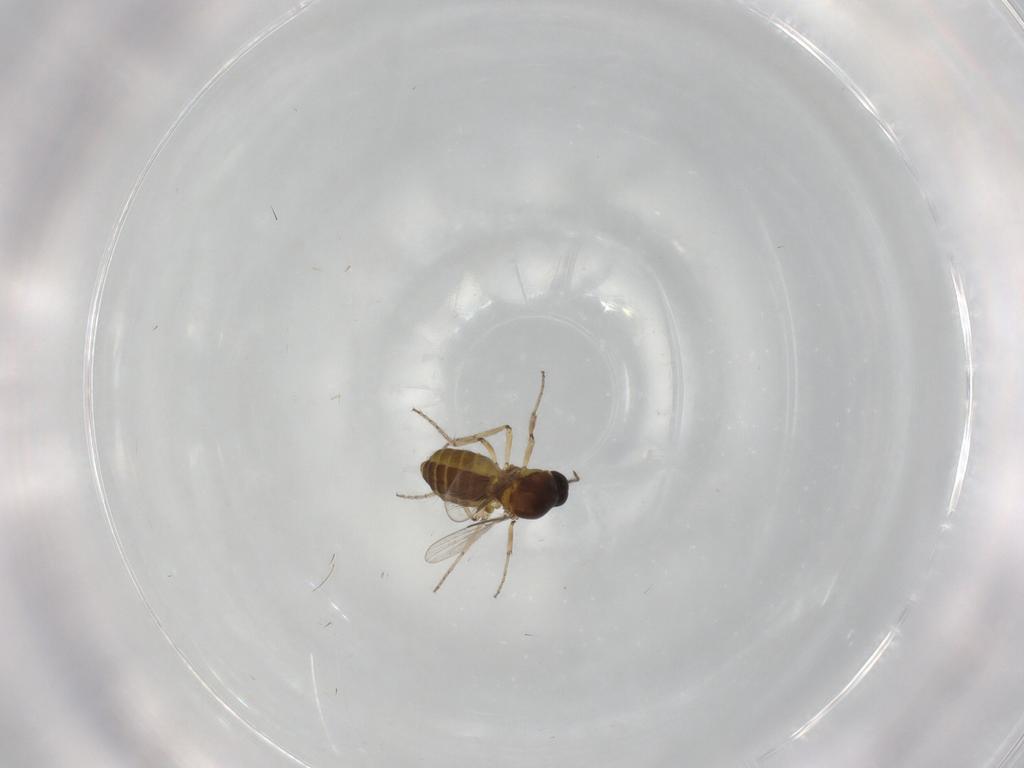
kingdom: Animalia
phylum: Arthropoda
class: Insecta
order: Diptera
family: Ceratopogonidae
